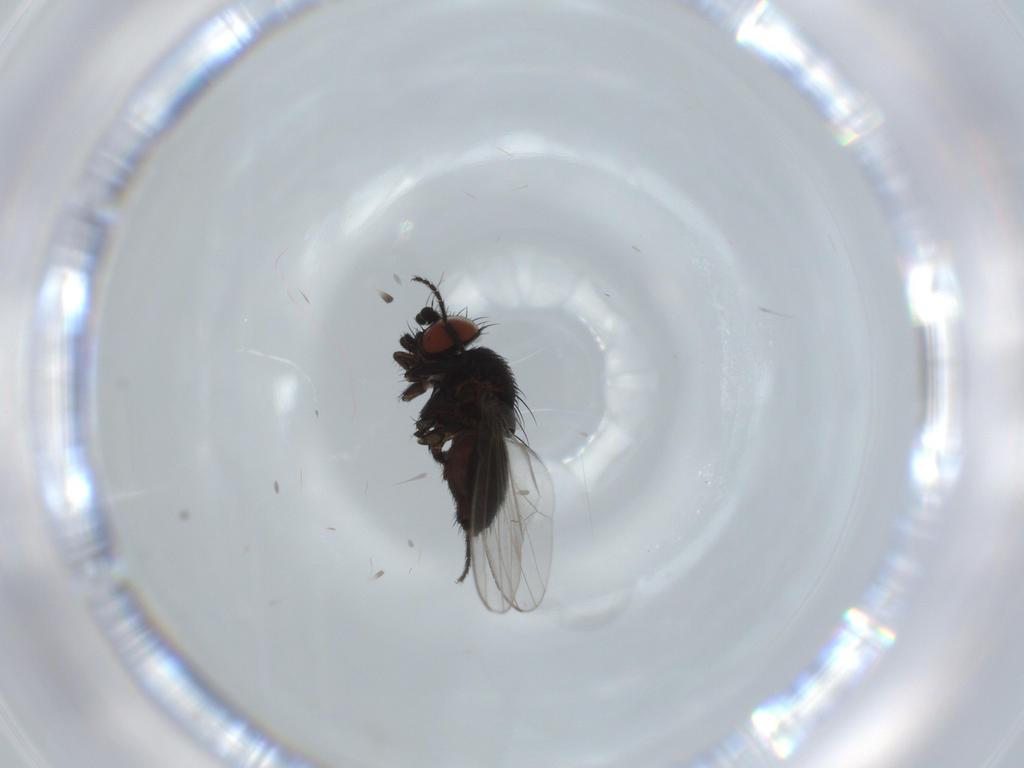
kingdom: Animalia
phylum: Arthropoda
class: Insecta
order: Diptera
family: Milichiidae
